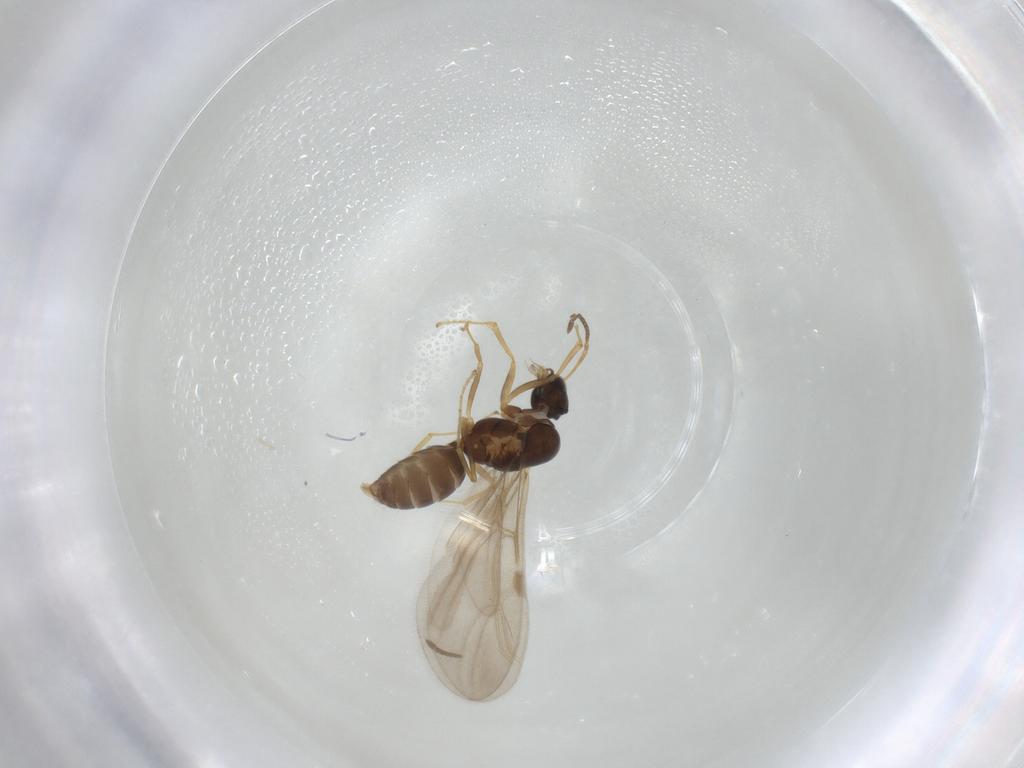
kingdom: Animalia
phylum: Arthropoda
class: Insecta
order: Hymenoptera
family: Formicidae
